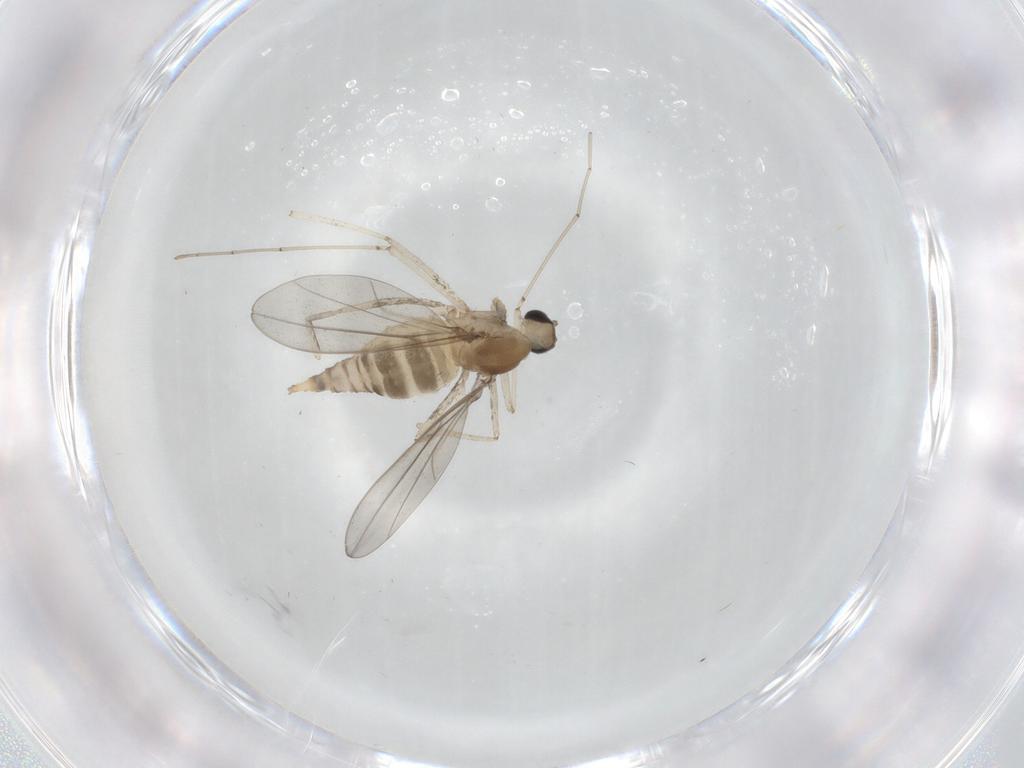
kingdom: Animalia
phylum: Arthropoda
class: Insecta
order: Diptera
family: Cecidomyiidae
